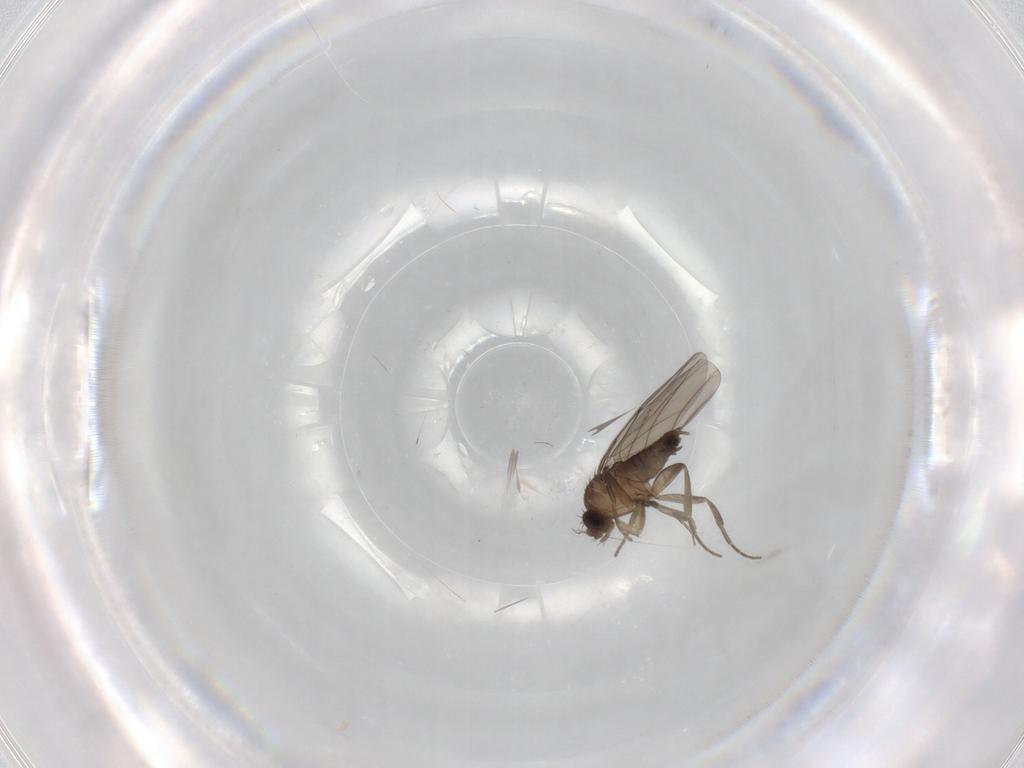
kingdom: Animalia
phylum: Arthropoda
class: Insecta
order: Diptera
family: Phoridae
